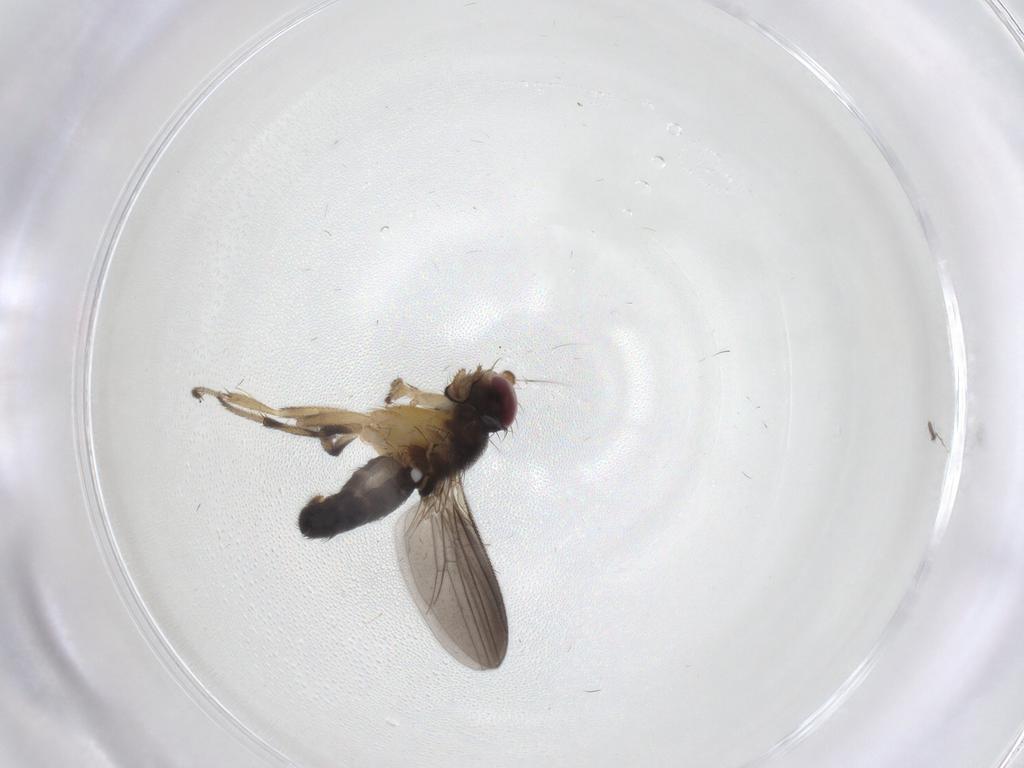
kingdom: Animalia
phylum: Arthropoda
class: Insecta
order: Diptera
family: Clusiidae
